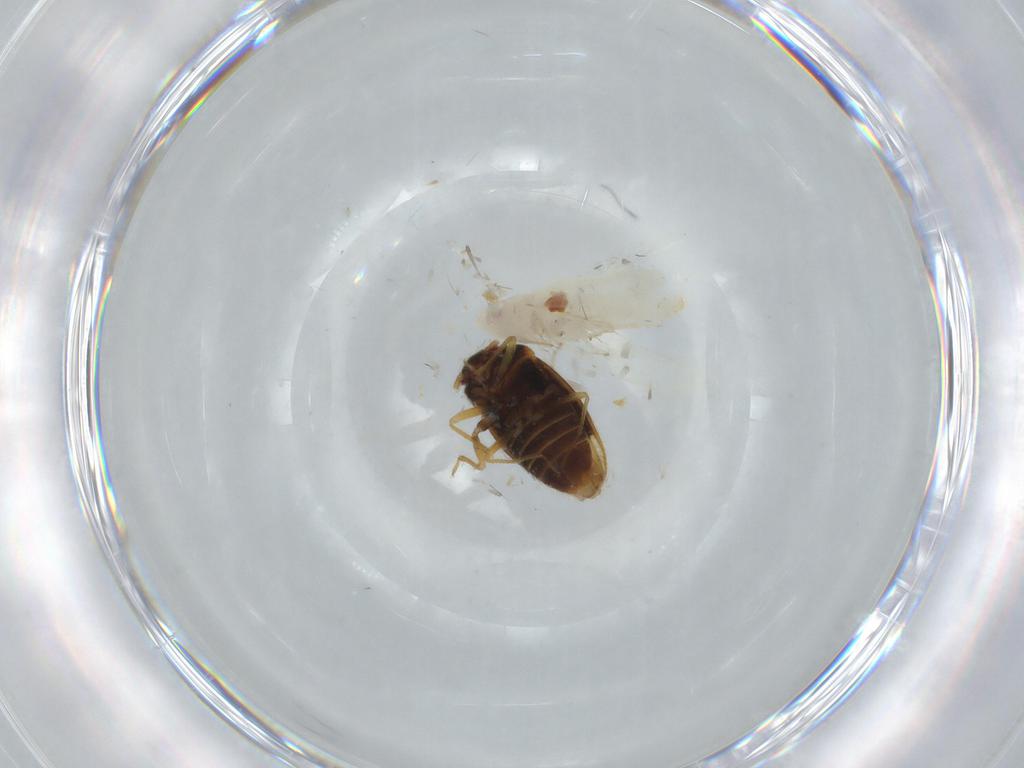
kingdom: Animalia
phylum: Arthropoda
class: Insecta
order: Hemiptera
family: Cicadellidae
